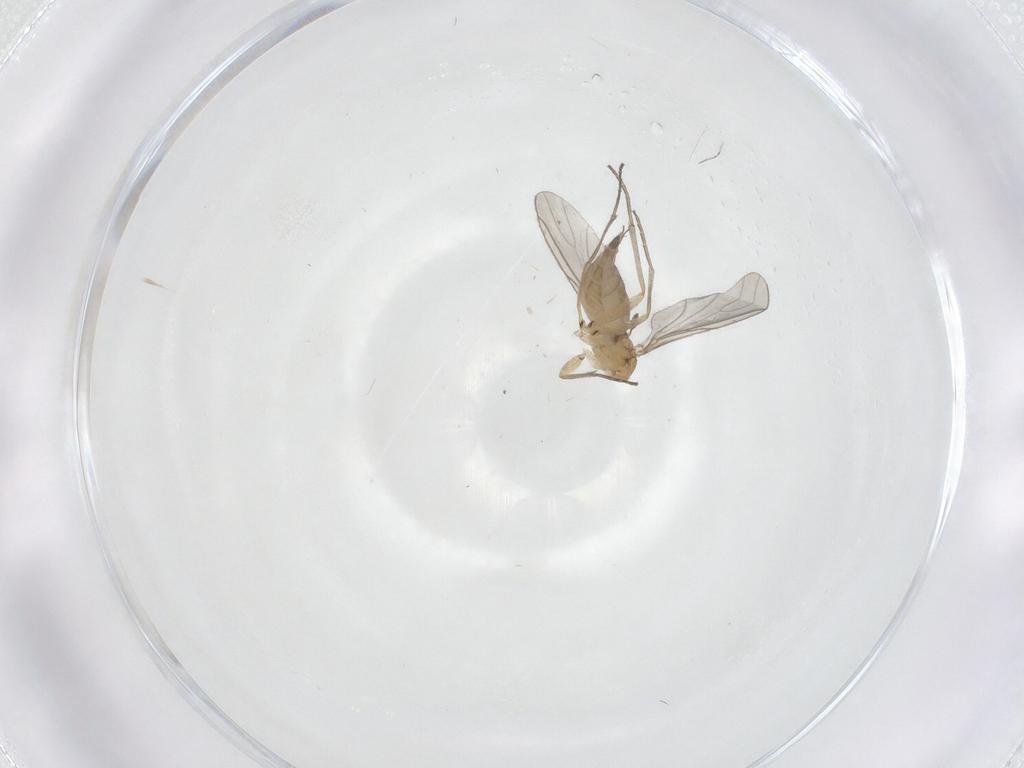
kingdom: Animalia
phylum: Arthropoda
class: Insecta
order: Diptera
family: Sciaridae
